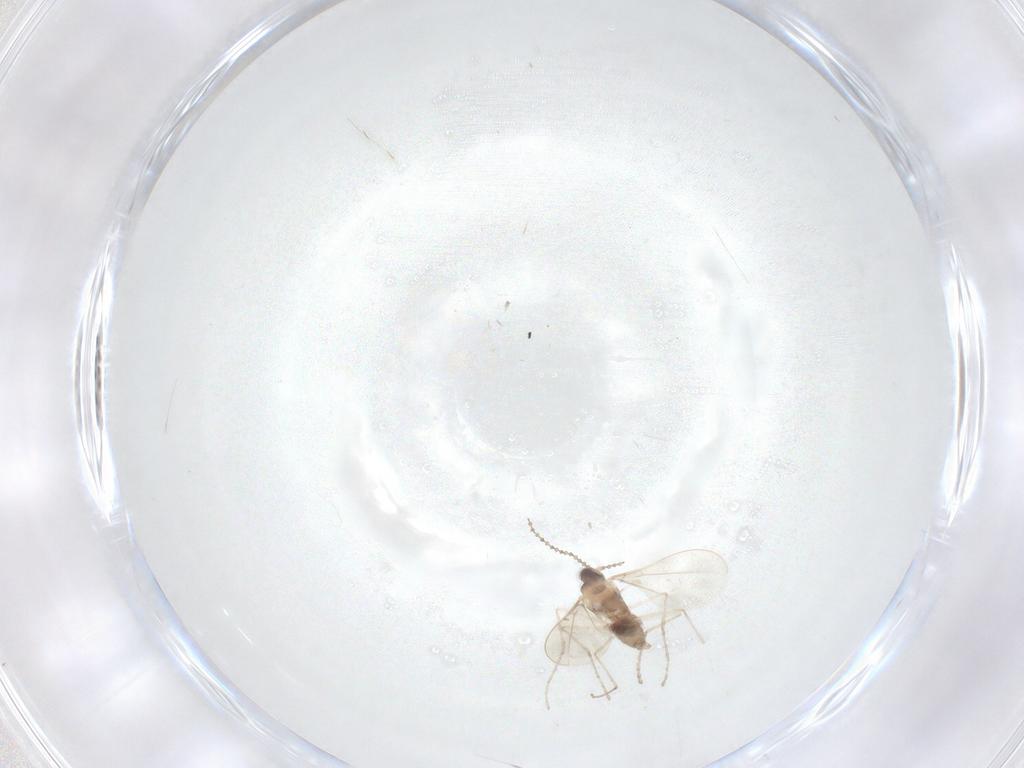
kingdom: Animalia
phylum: Arthropoda
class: Insecta
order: Diptera
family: Cecidomyiidae
